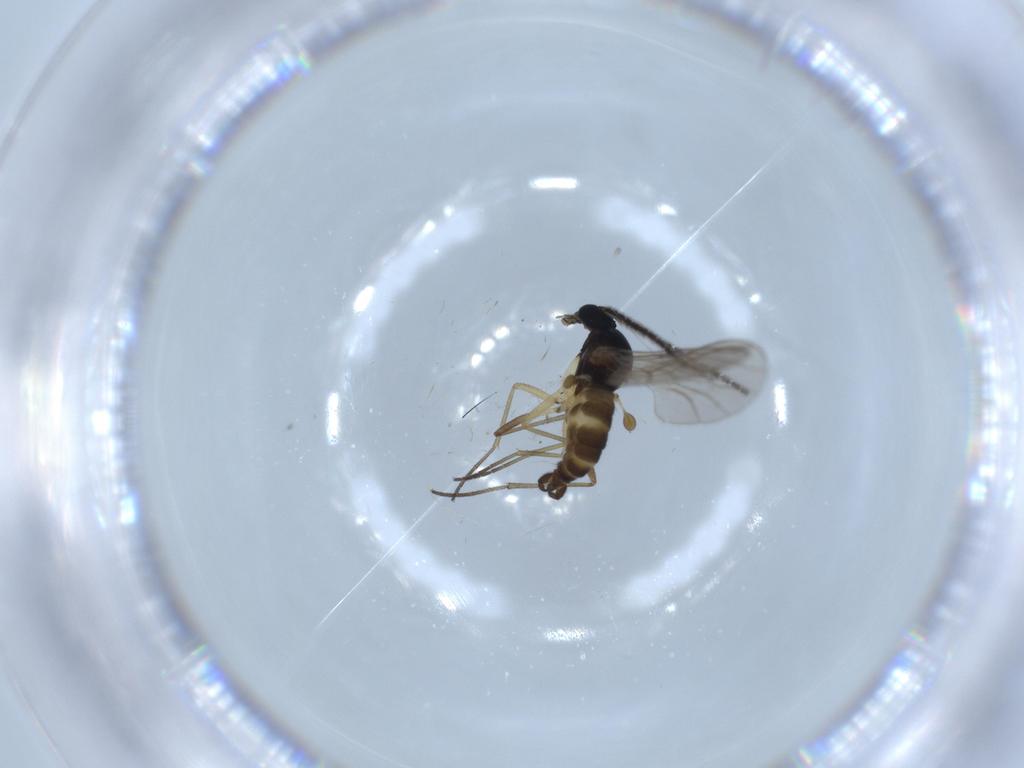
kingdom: Animalia
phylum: Arthropoda
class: Insecta
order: Diptera
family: Sciaridae
